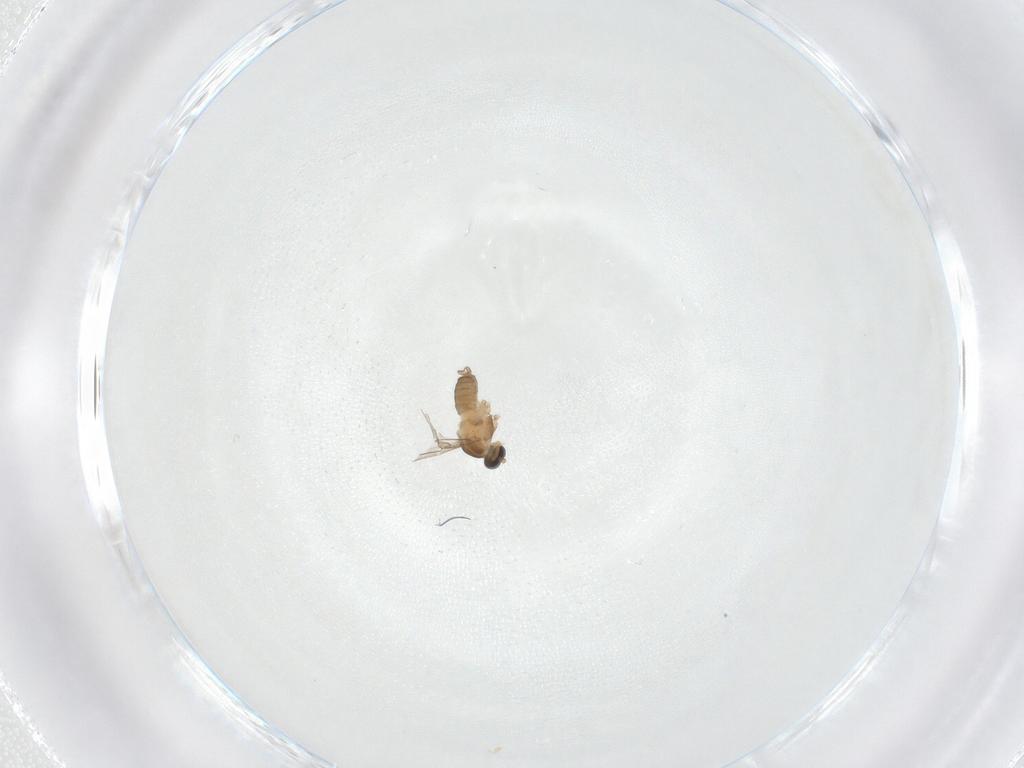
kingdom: Animalia
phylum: Arthropoda
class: Insecta
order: Diptera
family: Cecidomyiidae
